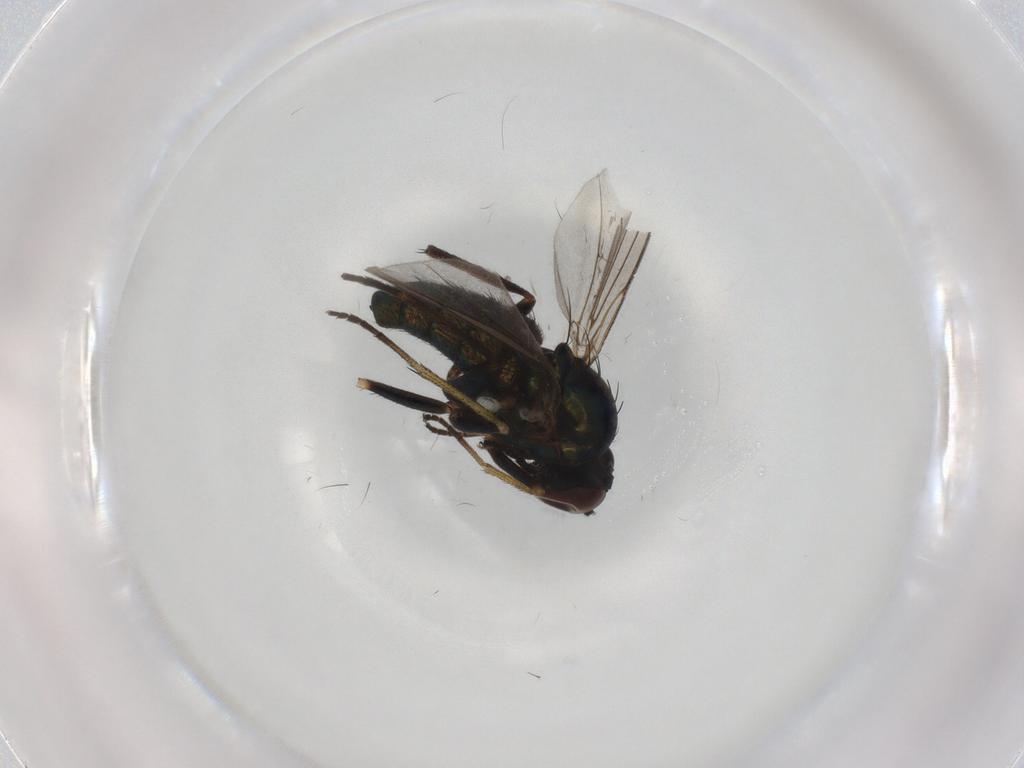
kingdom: Animalia
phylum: Arthropoda
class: Insecta
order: Diptera
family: Dolichopodidae
